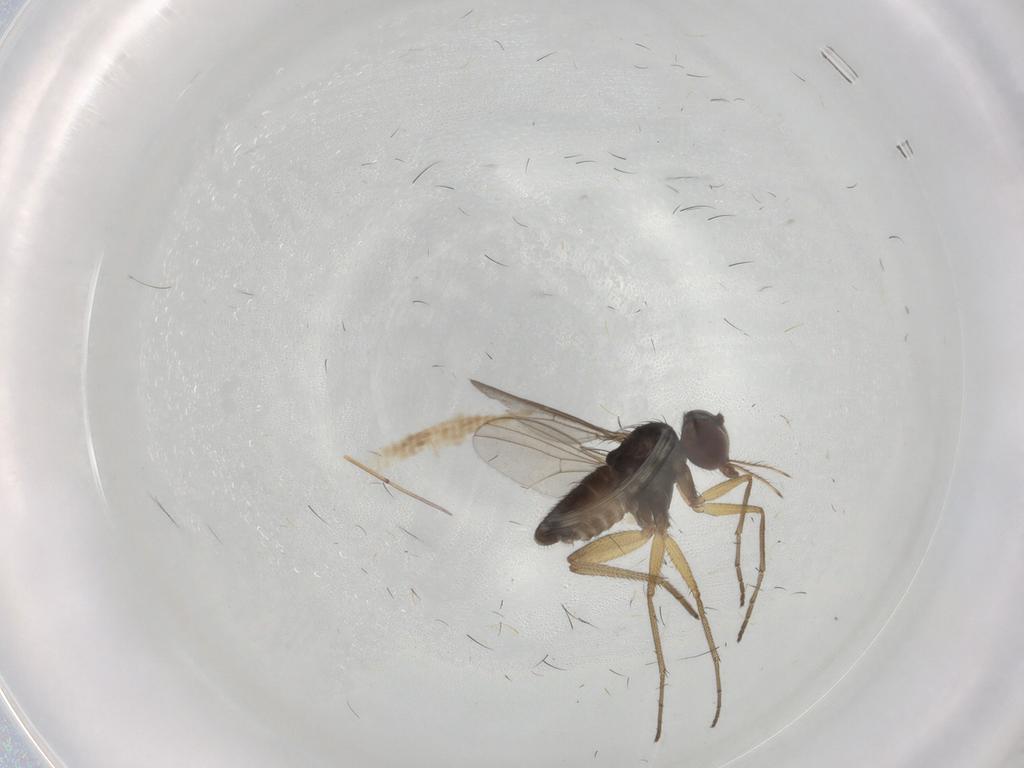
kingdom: Animalia
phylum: Arthropoda
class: Insecta
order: Diptera
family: Dolichopodidae
